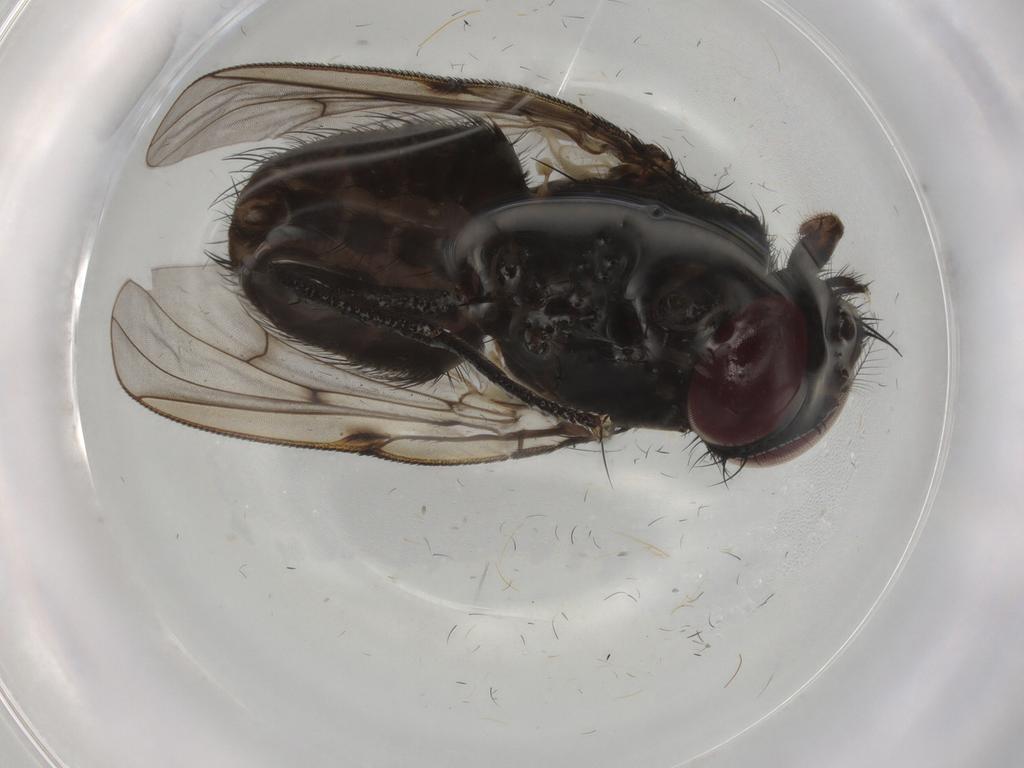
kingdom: Animalia
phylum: Arthropoda
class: Insecta
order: Diptera
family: Muscidae
